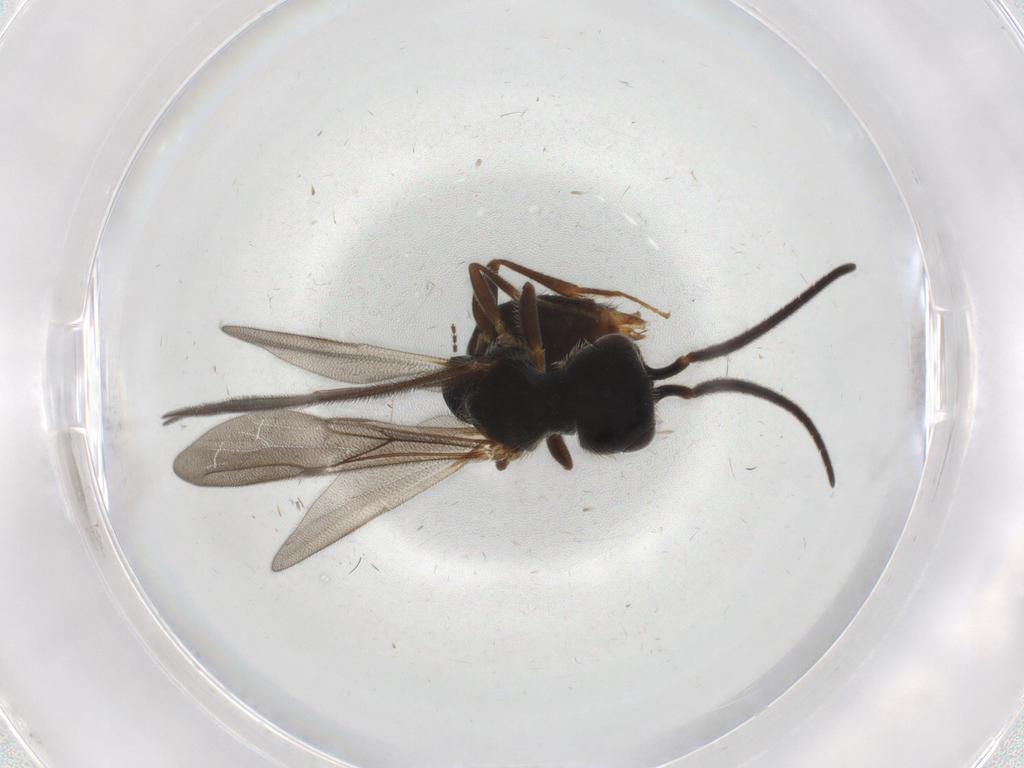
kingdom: Animalia
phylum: Arthropoda
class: Insecta
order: Hymenoptera
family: Bethylidae
